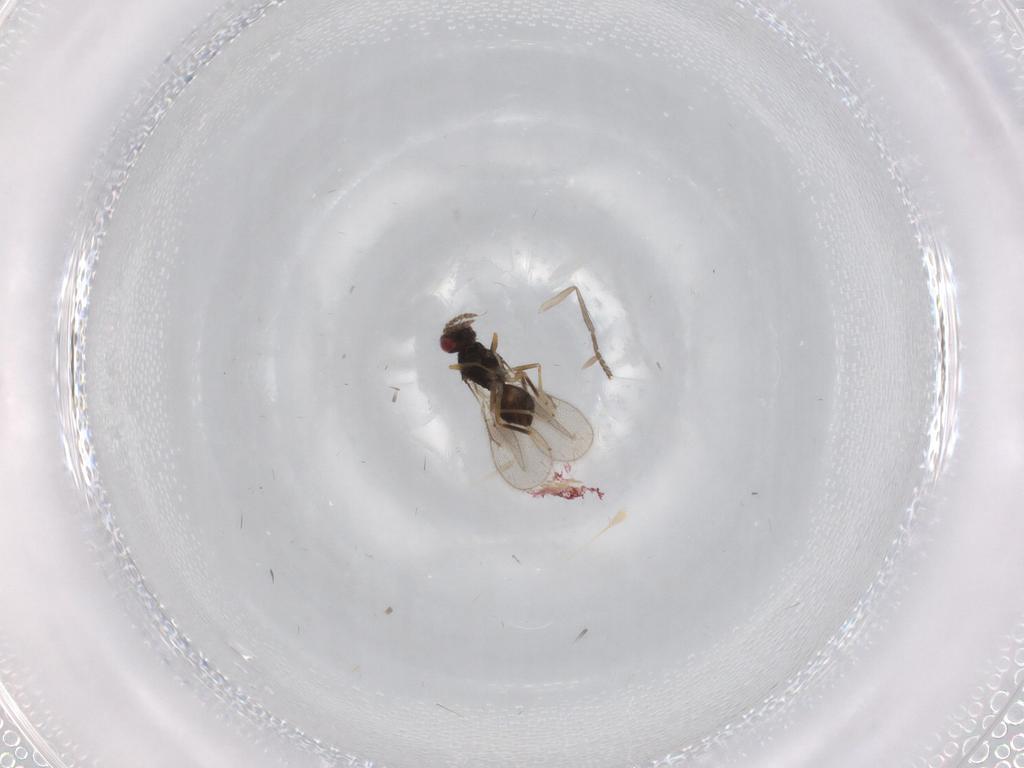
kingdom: Animalia
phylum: Arthropoda
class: Insecta
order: Hymenoptera
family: Eulophidae
